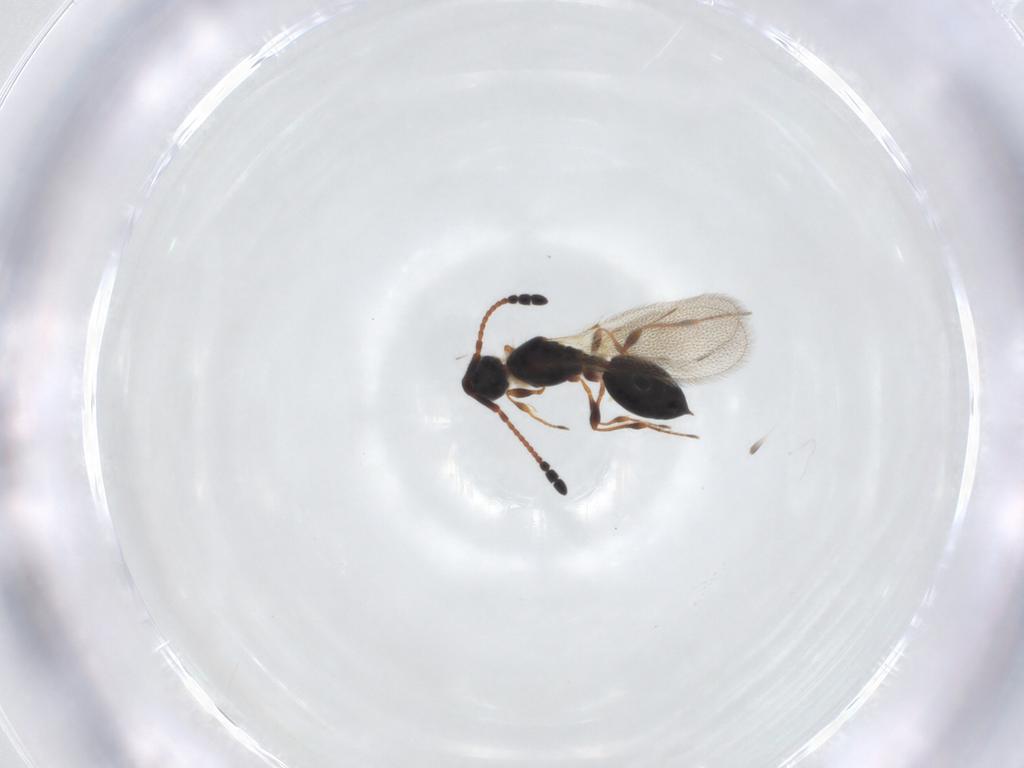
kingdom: Animalia
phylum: Arthropoda
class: Insecta
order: Hymenoptera
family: Diapriidae
